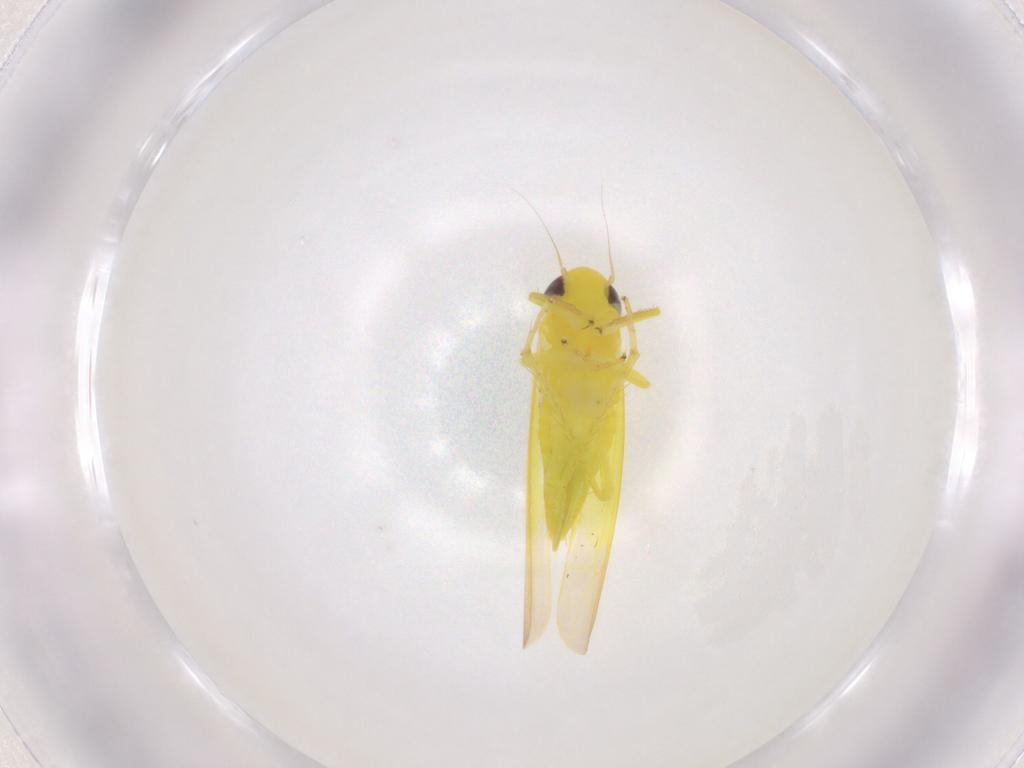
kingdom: Animalia
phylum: Arthropoda
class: Insecta
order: Hemiptera
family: Cicadellidae
